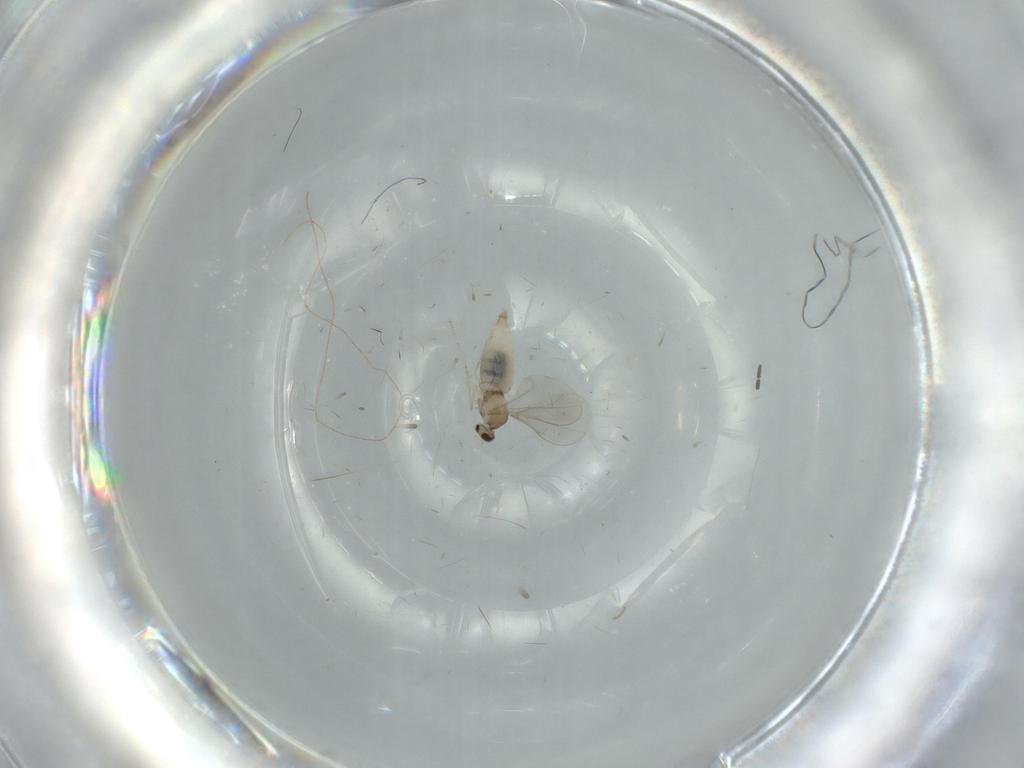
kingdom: Animalia
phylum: Arthropoda
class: Insecta
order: Diptera
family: Cecidomyiidae
